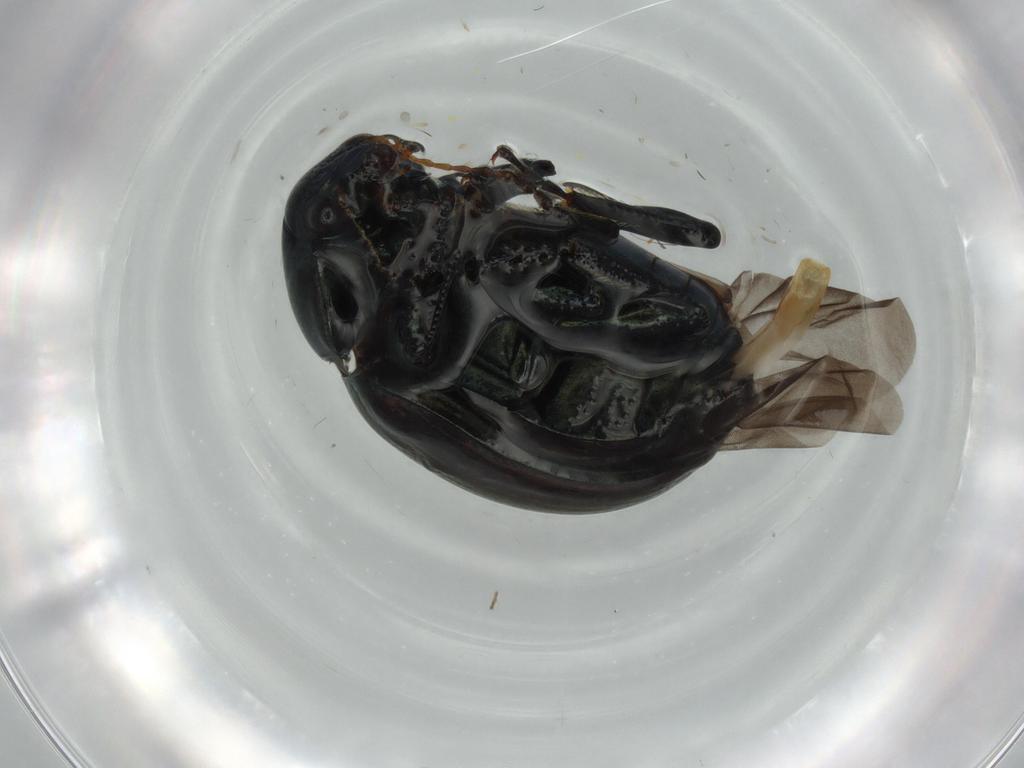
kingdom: Animalia
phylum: Arthropoda
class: Insecta
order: Coleoptera
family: Chrysomelidae
